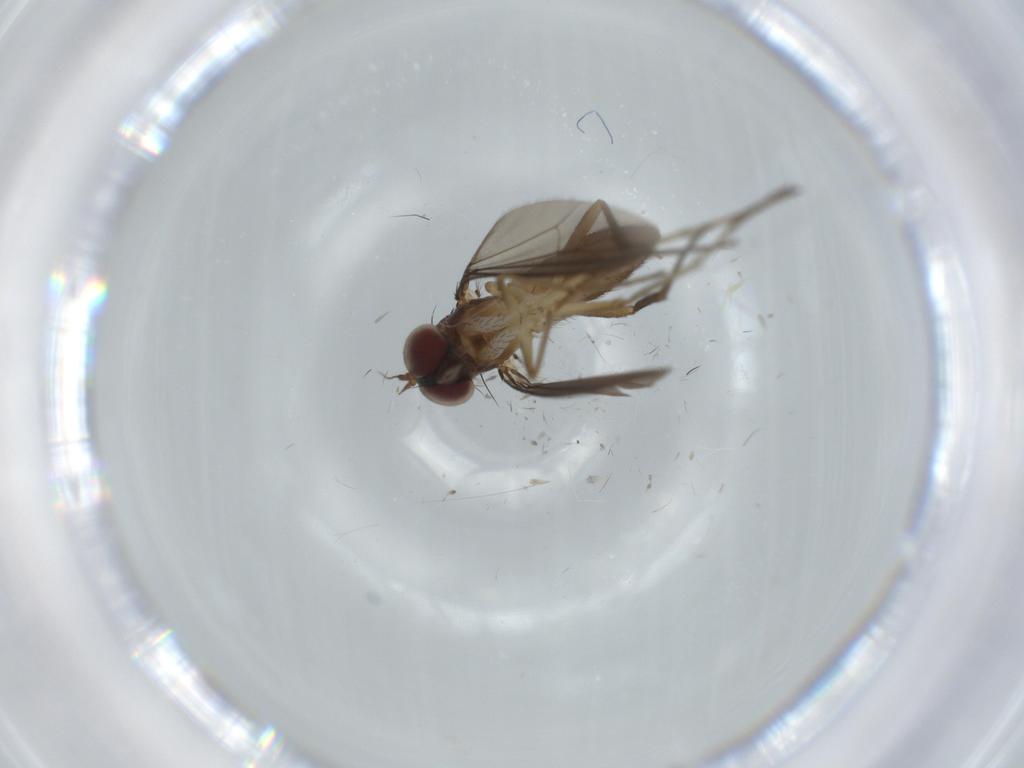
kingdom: Animalia
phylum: Arthropoda
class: Insecta
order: Diptera
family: Dolichopodidae
